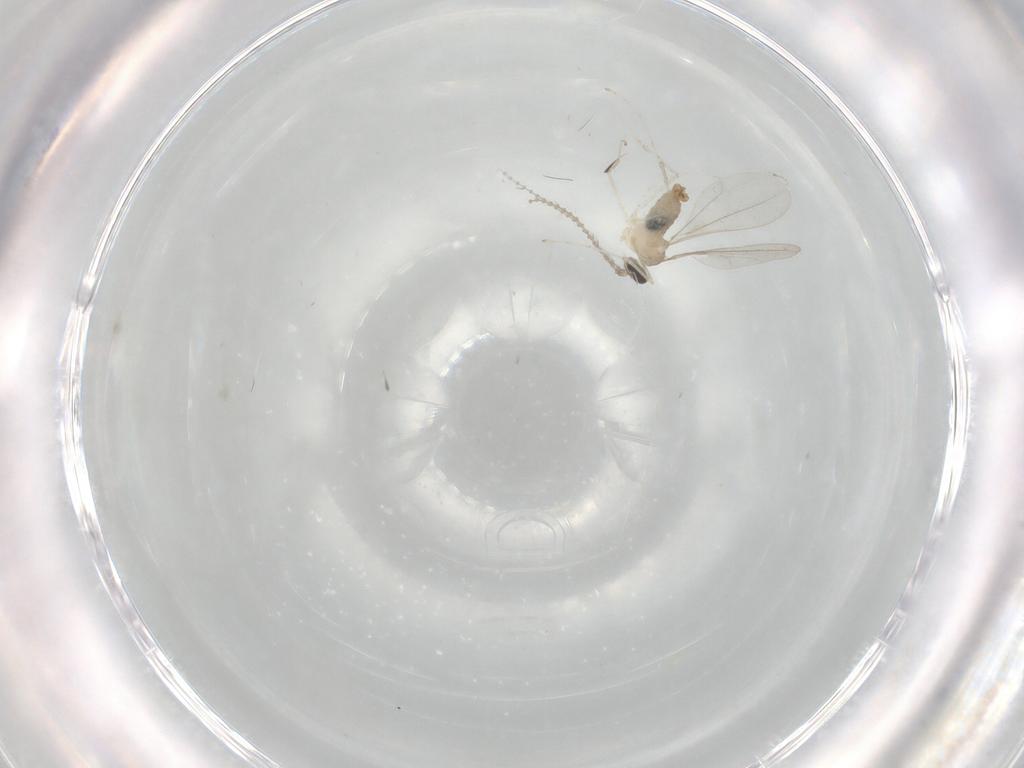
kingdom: Animalia
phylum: Arthropoda
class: Insecta
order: Diptera
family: Cecidomyiidae
